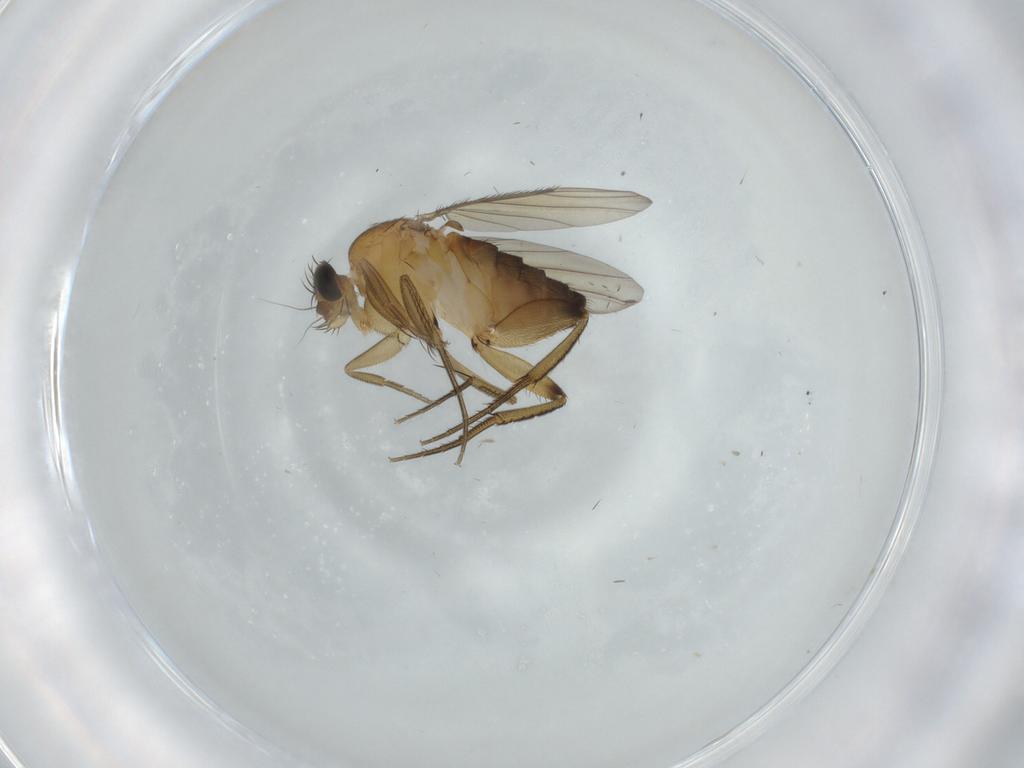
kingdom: Animalia
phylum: Arthropoda
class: Insecta
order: Diptera
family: Phoridae
